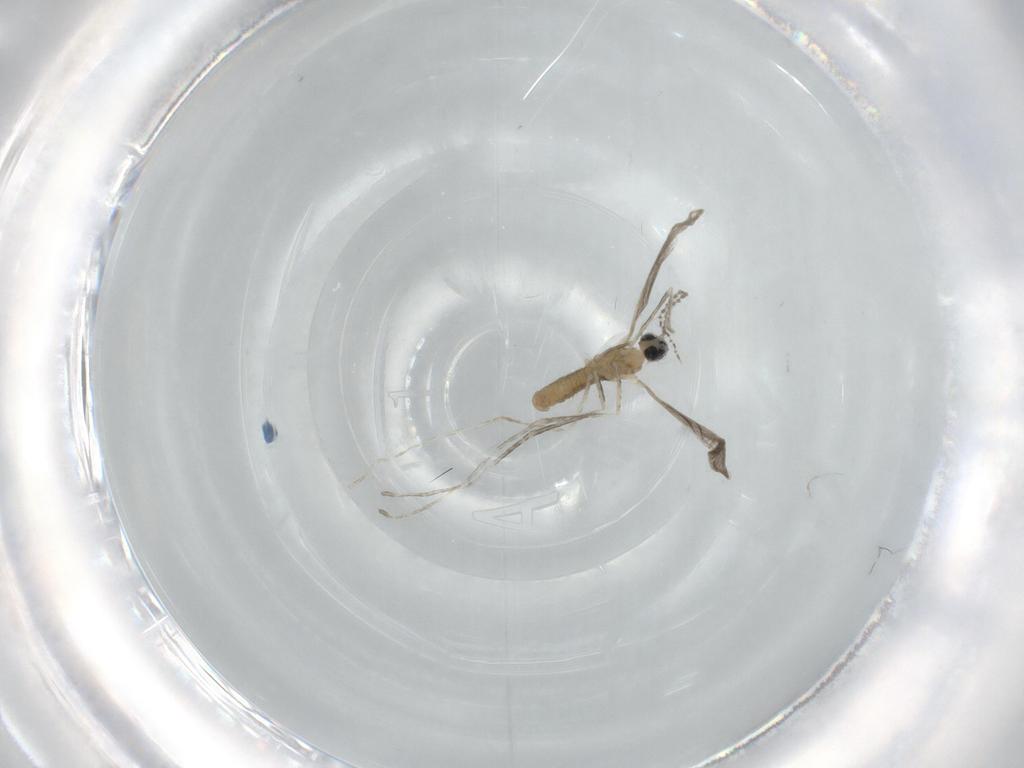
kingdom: Animalia
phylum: Arthropoda
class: Insecta
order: Diptera
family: Cecidomyiidae
